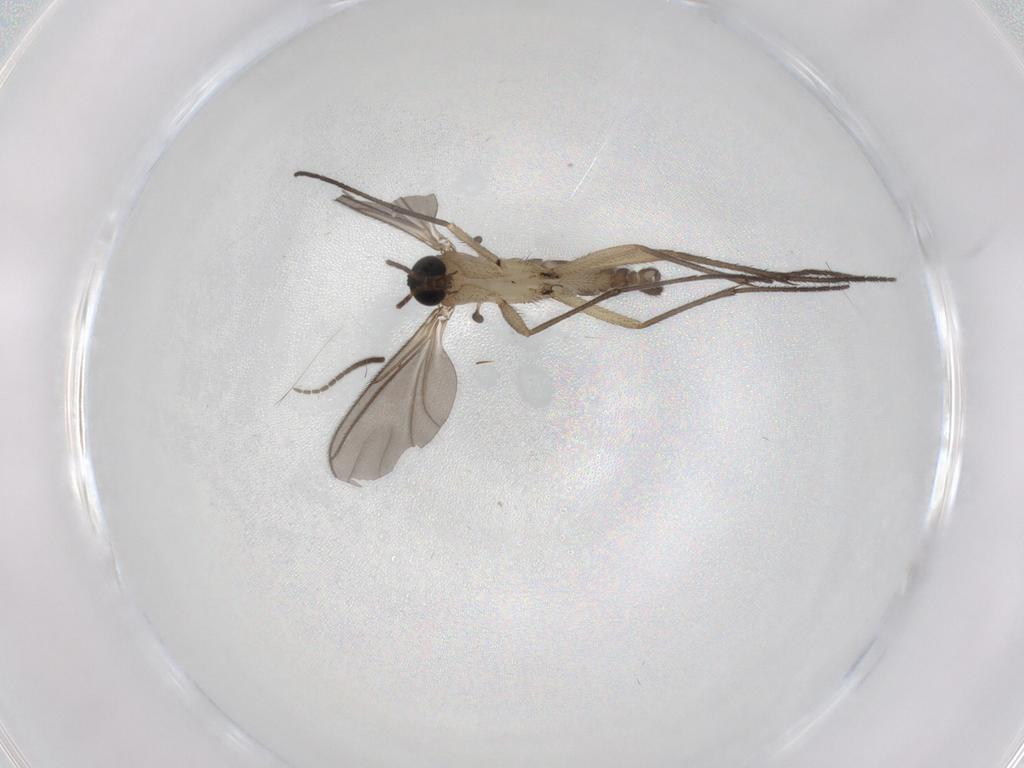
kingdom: Animalia
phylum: Arthropoda
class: Insecta
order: Diptera
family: Sciaridae
